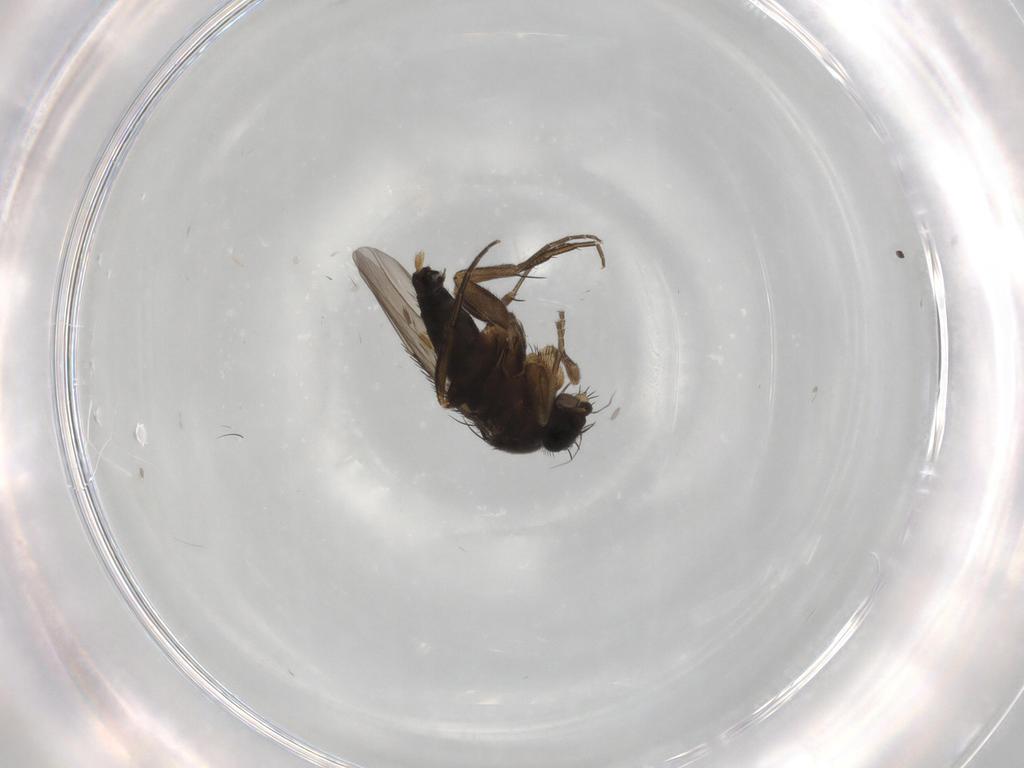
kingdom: Animalia
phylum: Arthropoda
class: Insecta
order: Diptera
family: Phoridae
